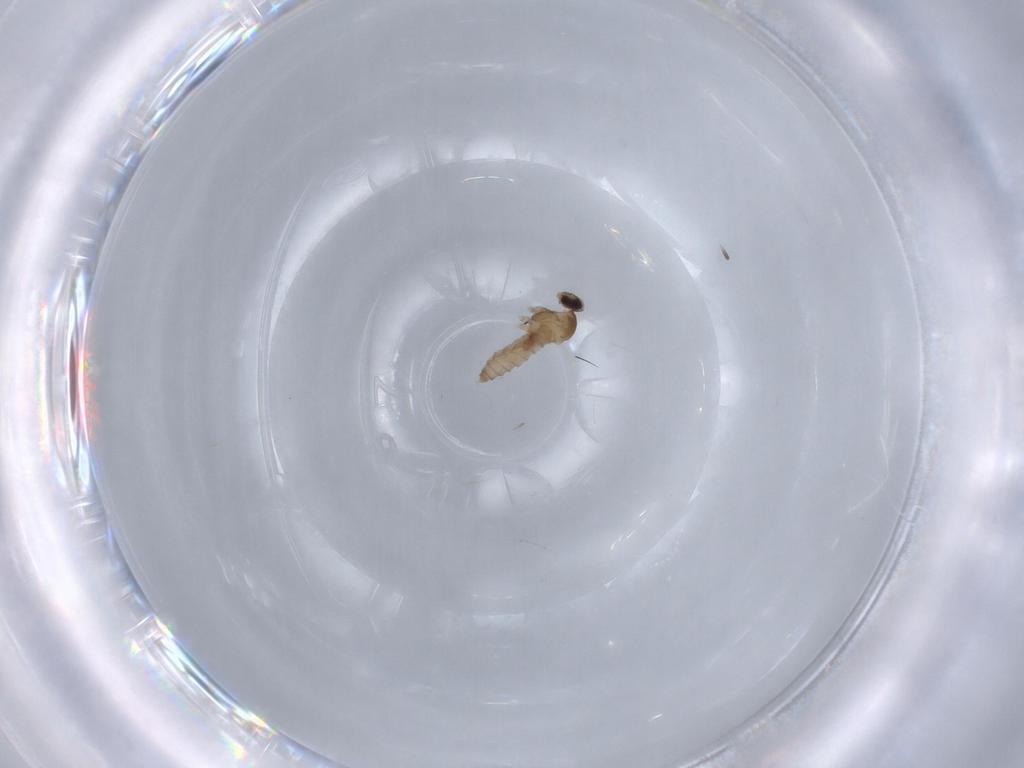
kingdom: Animalia
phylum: Arthropoda
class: Insecta
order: Diptera
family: Cecidomyiidae
